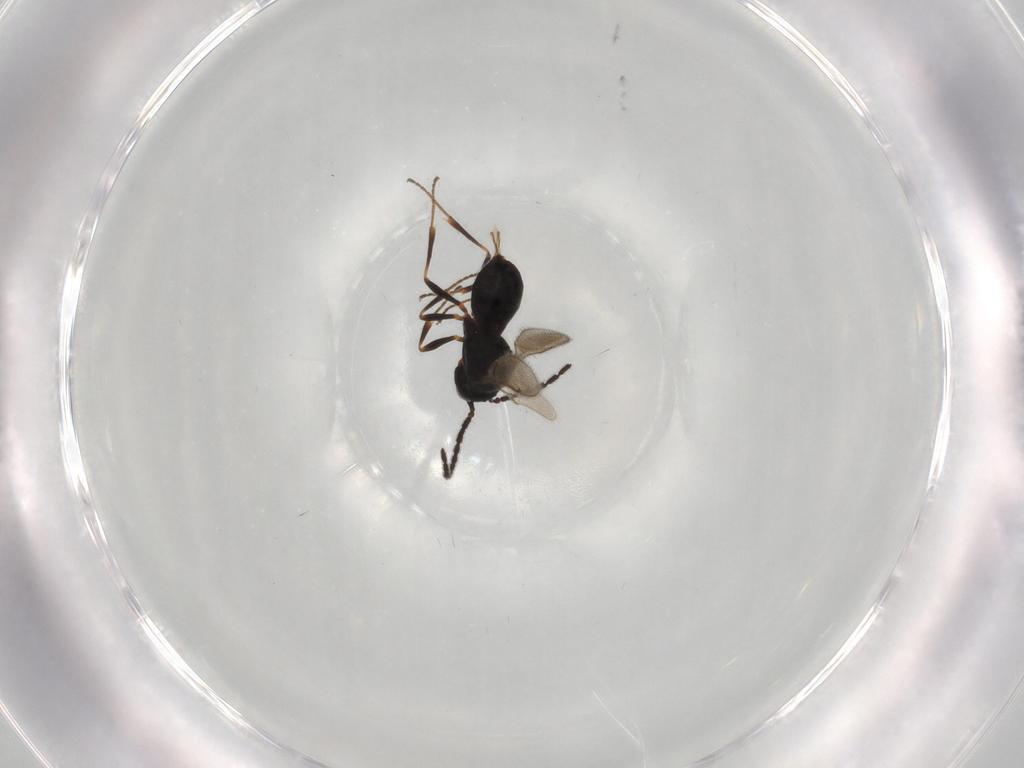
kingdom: Animalia
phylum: Arthropoda
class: Insecta
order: Hymenoptera
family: Scelionidae
